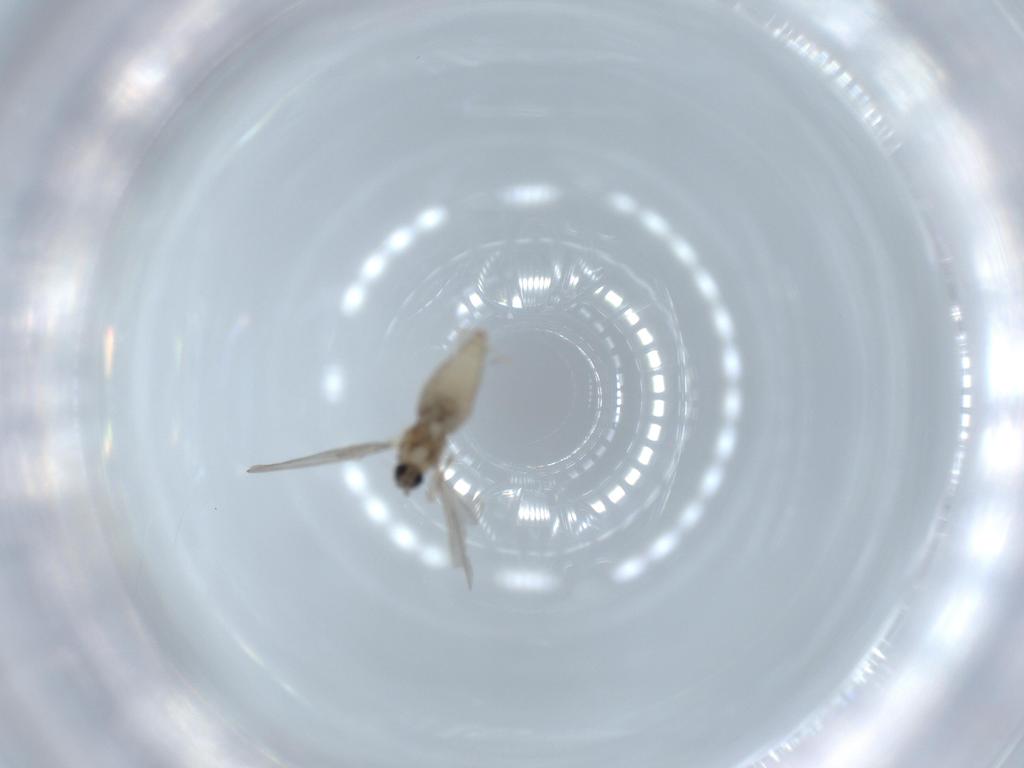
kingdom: Animalia
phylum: Arthropoda
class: Insecta
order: Diptera
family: Cecidomyiidae
